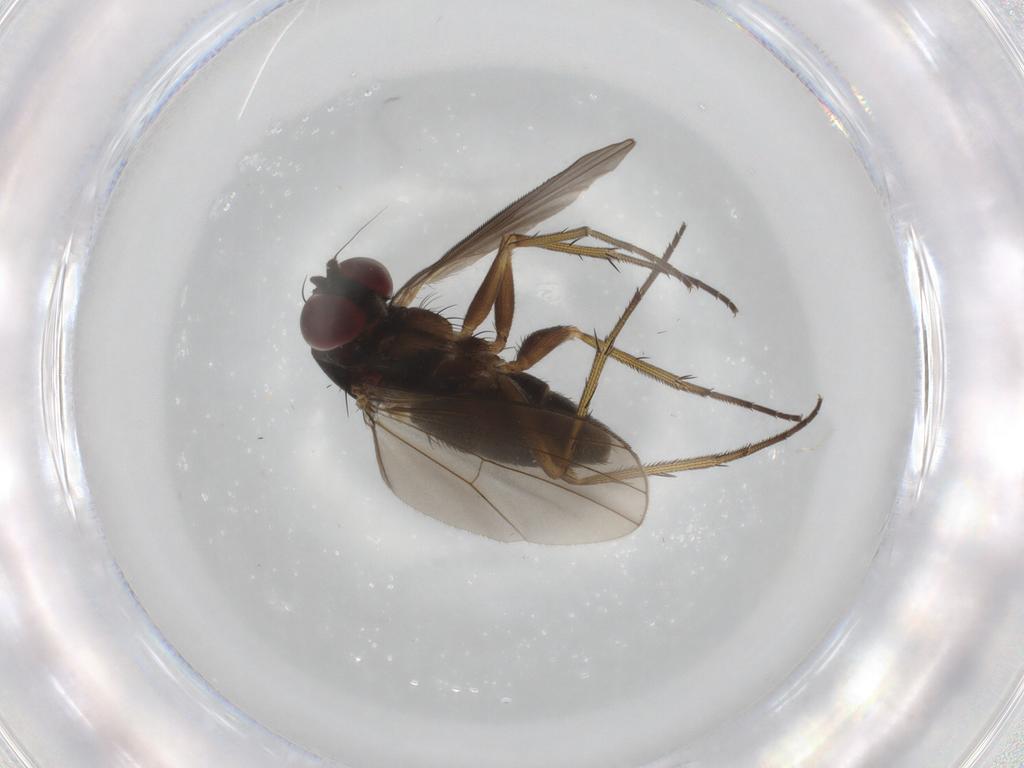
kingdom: Animalia
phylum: Arthropoda
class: Insecta
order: Diptera
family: Dolichopodidae
